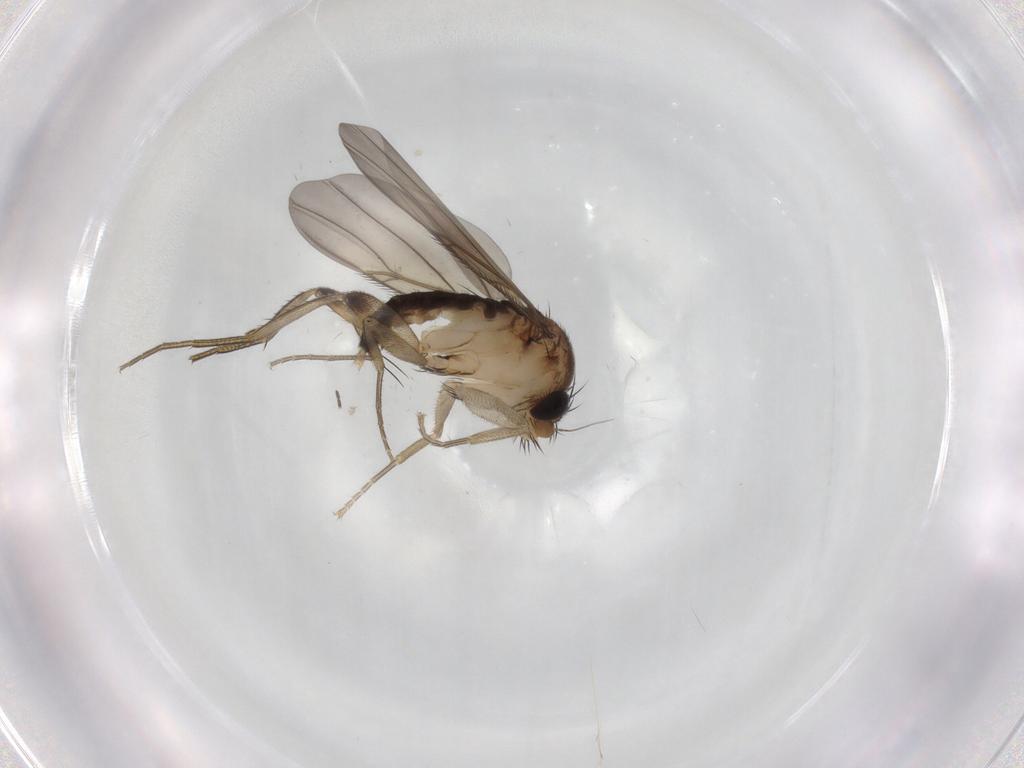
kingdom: Animalia
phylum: Arthropoda
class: Insecta
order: Diptera
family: Phoridae
